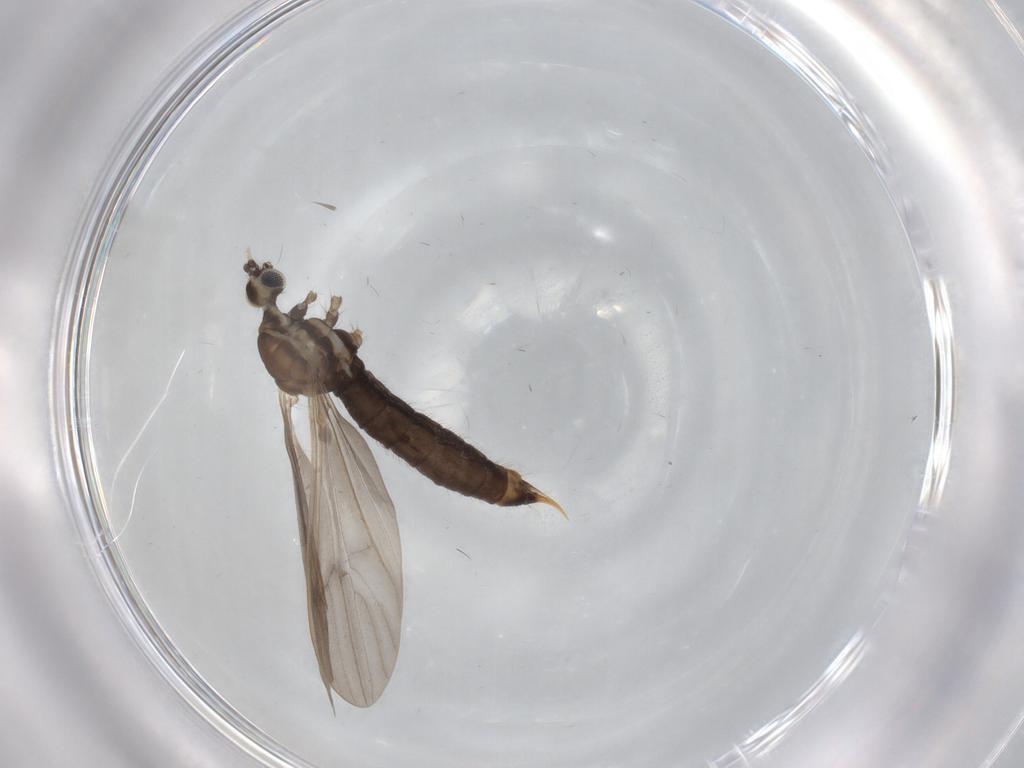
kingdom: Animalia
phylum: Arthropoda
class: Insecta
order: Diptera
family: Limoniidae
